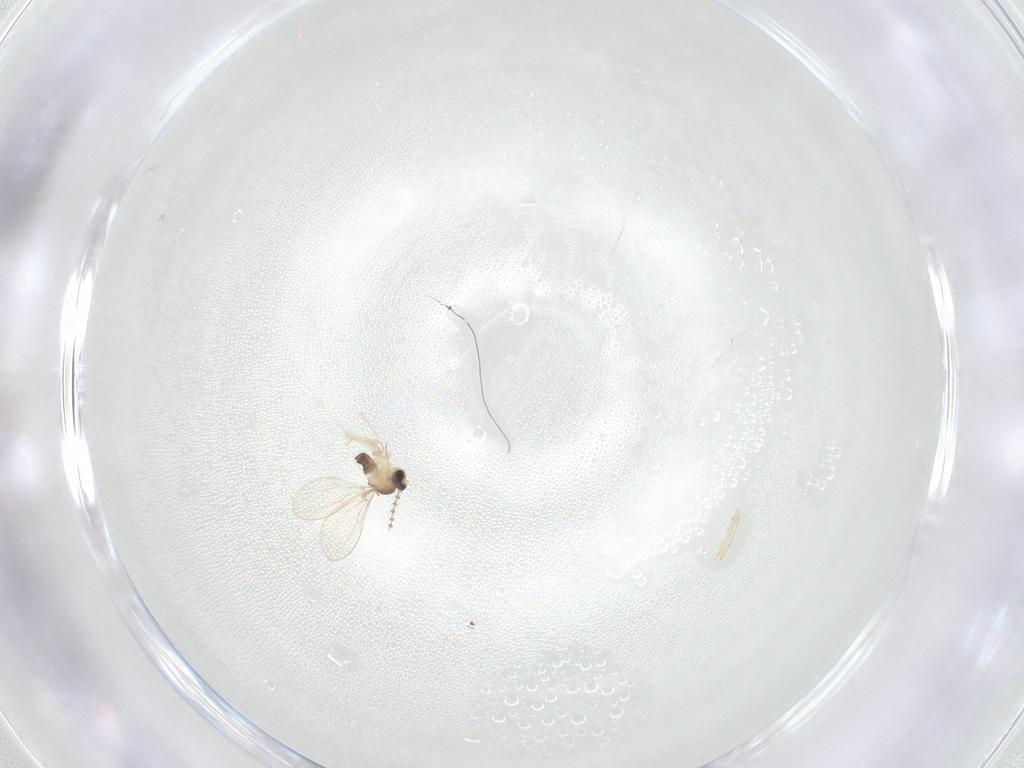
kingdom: Animalia
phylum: Arthropoda
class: Insecta
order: Diptera
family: Cecidomyiidae
